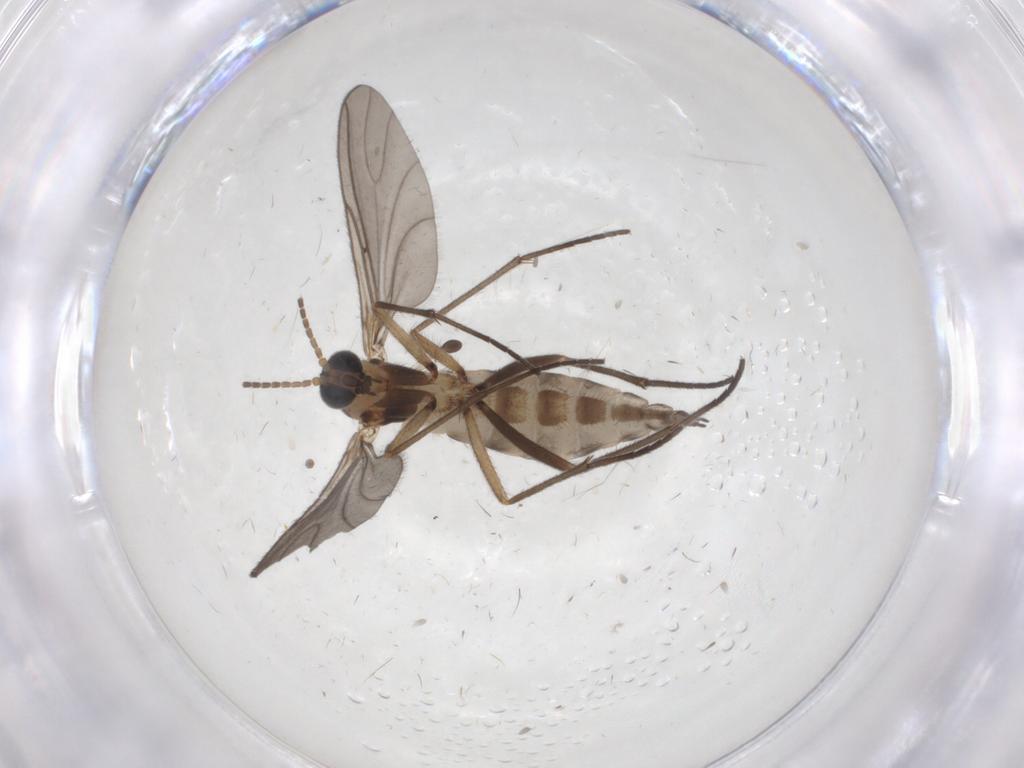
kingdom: Animalia
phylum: Arthropoda
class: Insecta
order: Diptera
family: Sciaridae
